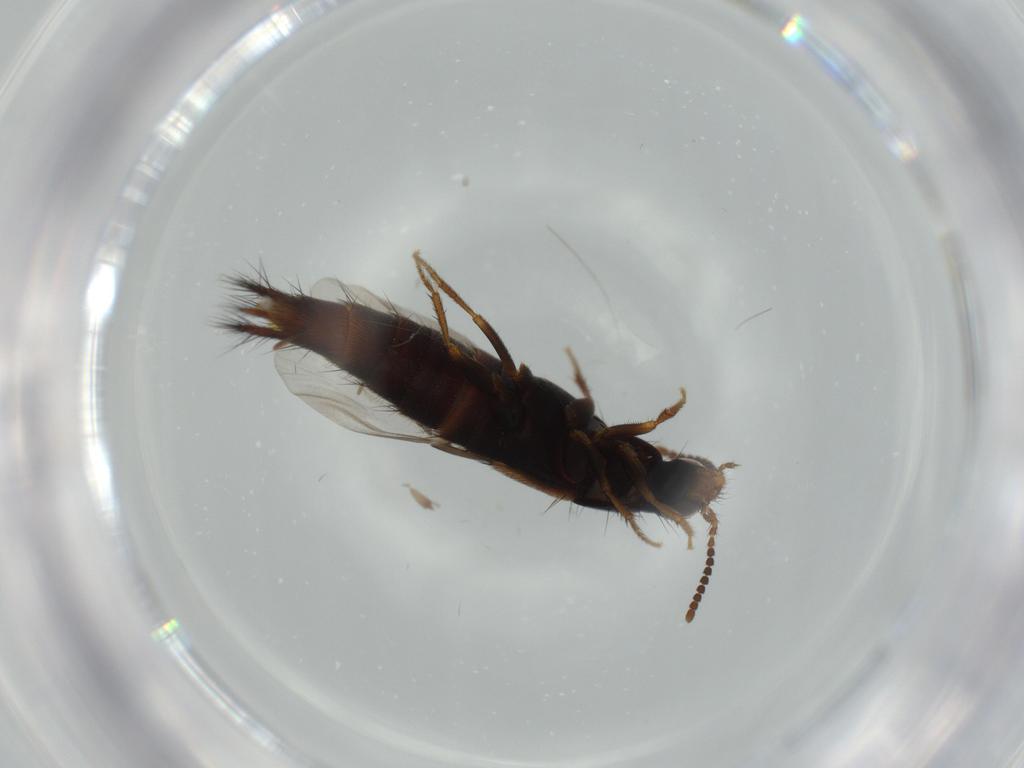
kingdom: Animalia
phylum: Arthropoda
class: Insecta
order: Coleoptera
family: Staphylinidae
